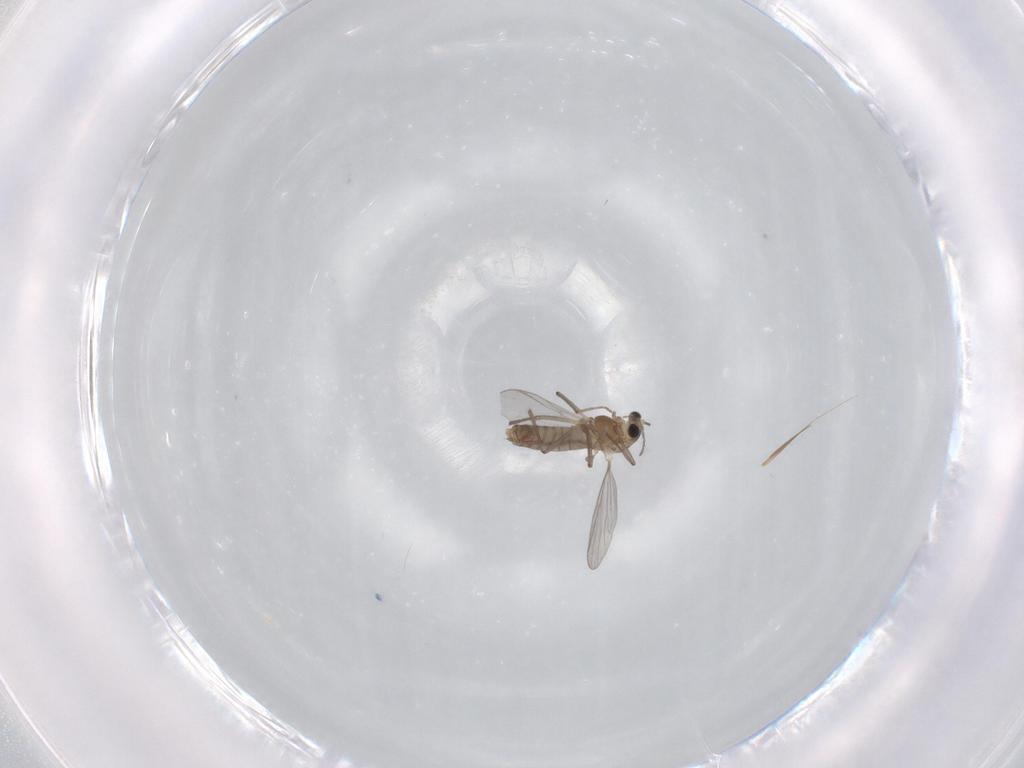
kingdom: Animalia
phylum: Arthropoda
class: Insecta
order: Diptera
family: Chironomidae
